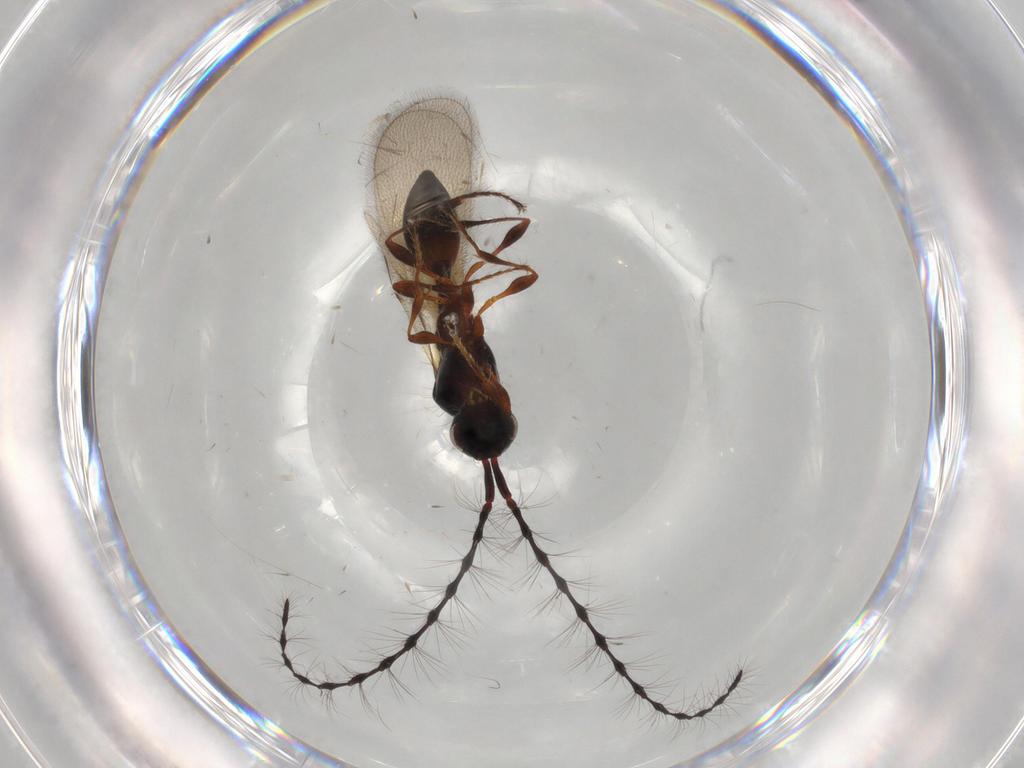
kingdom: Animalia
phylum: Arthropoda
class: Insecta
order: Hymenoptera
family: Diapriidae
